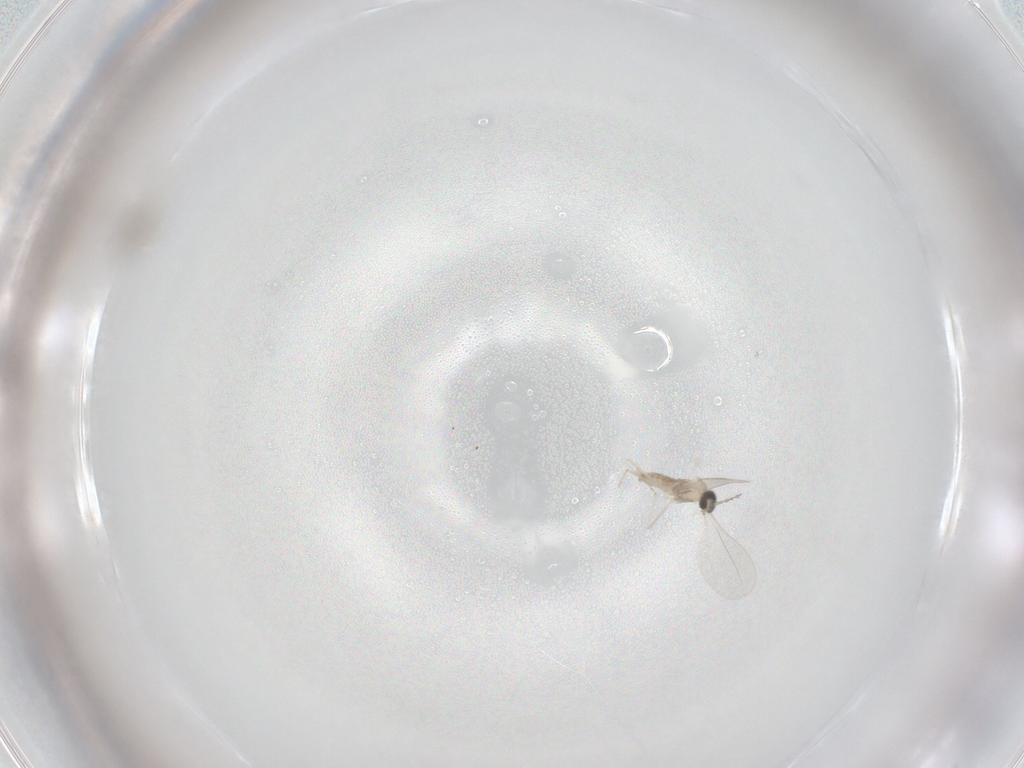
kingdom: Animalia
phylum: Arthropoda
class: Insecta
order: Diptera
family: Cecidomyiidae
